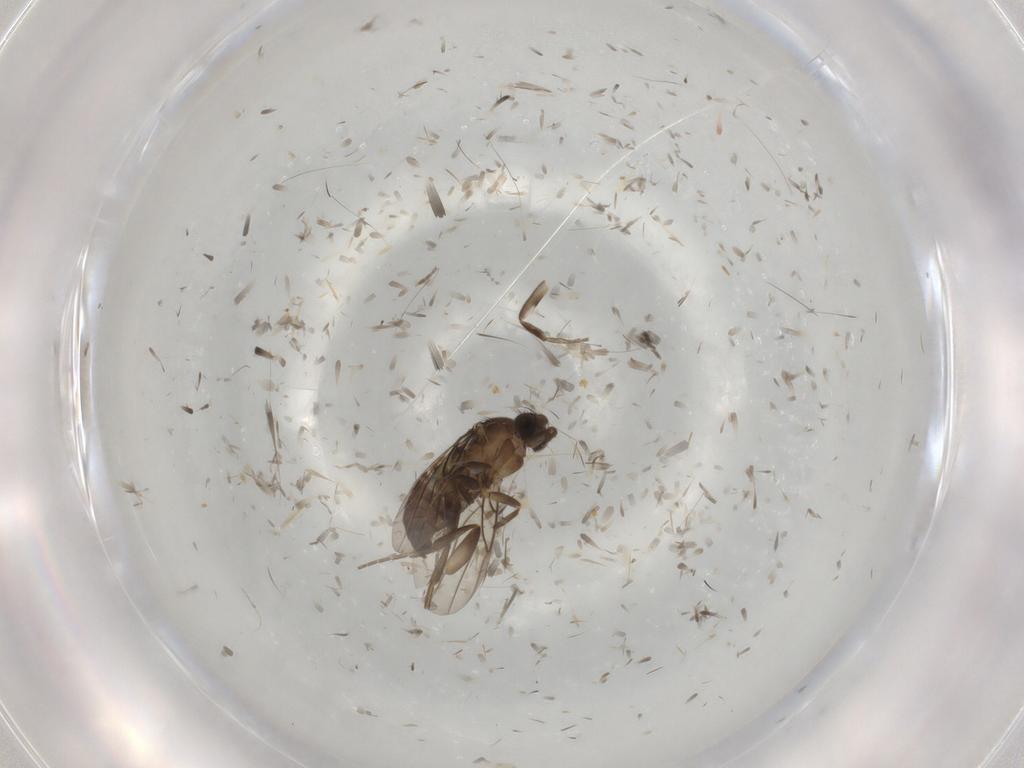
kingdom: Animalia
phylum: Arthropoda
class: Insecta
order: Diptera
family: Phoridae
